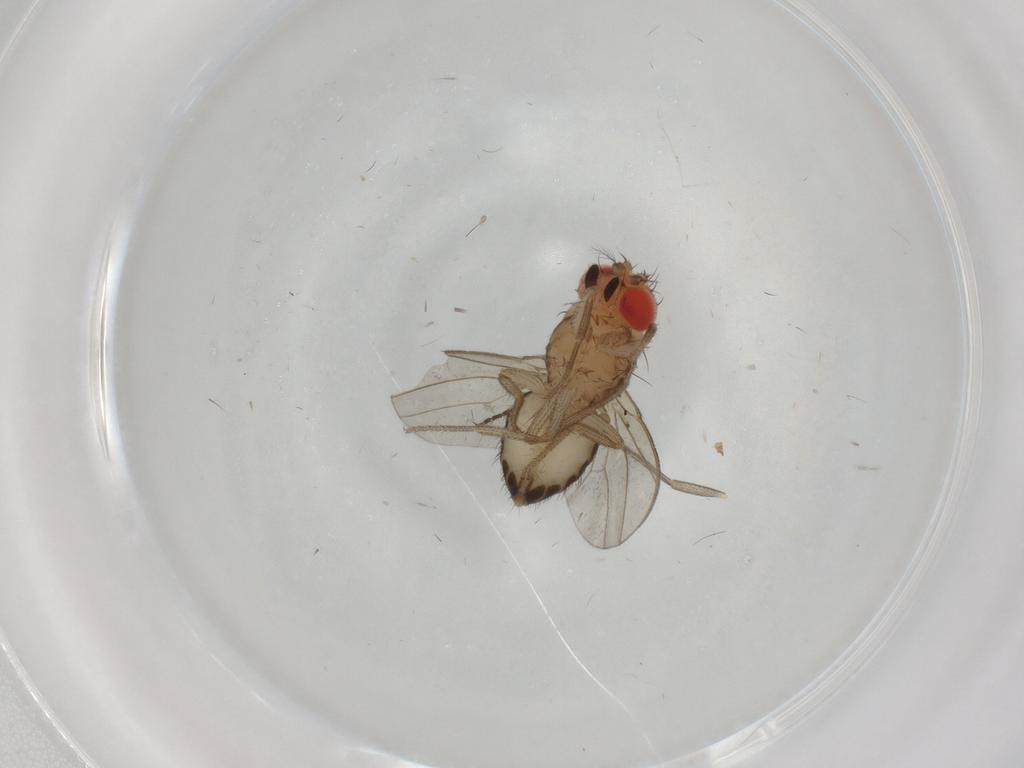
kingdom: Animalia
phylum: Arthropoda
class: Insecta
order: Diptera
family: Drosophilidae
